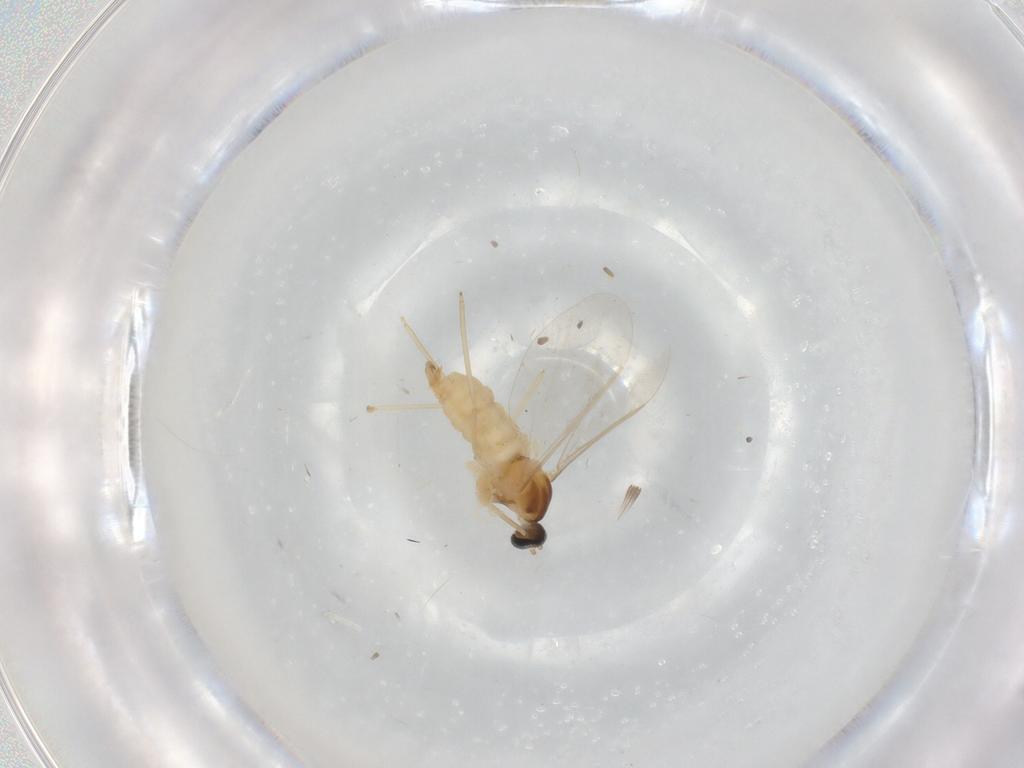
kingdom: Animalia
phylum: Arthropoda
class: Insecta
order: Diptera
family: Cecidomyiidae
